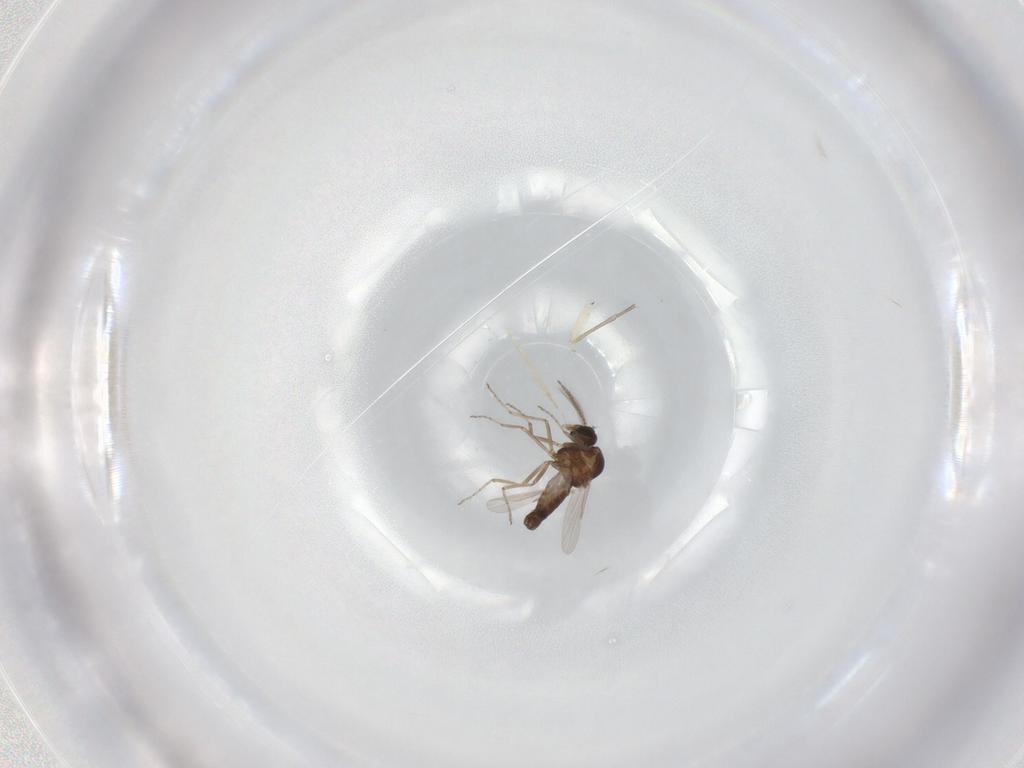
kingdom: Animalia
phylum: Arthropoda
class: Insecta
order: Diptera
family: Ceratopogonidae
